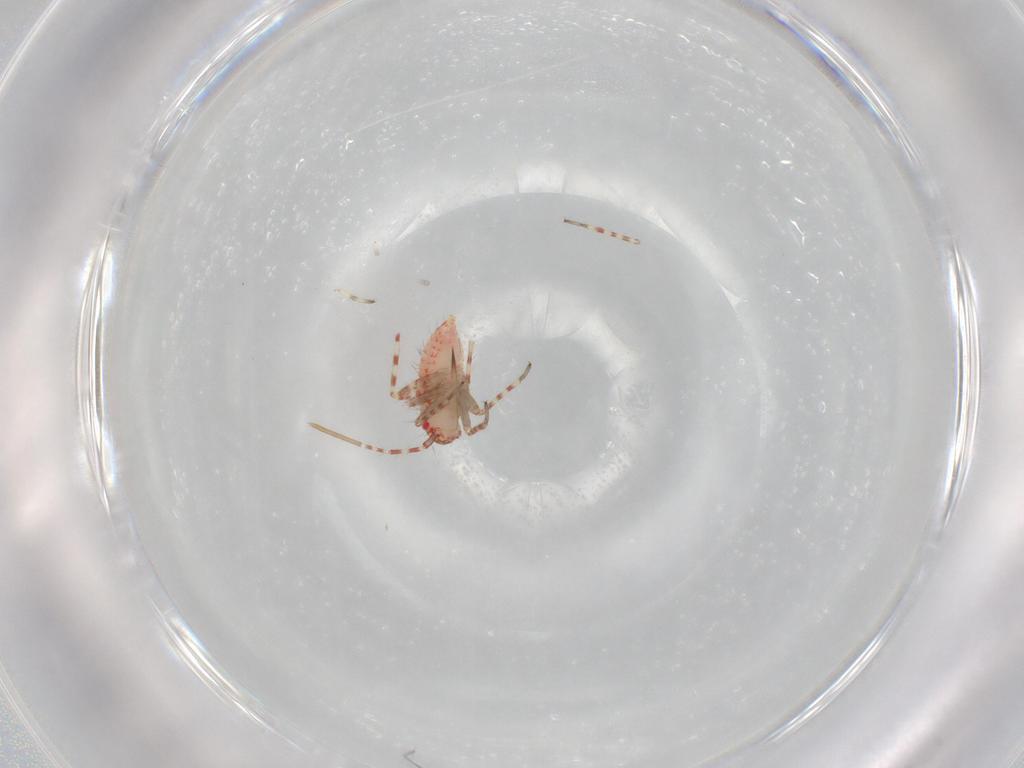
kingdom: Animalia
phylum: Arthropoda
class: Insecta
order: Hemiptera
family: Miridae
